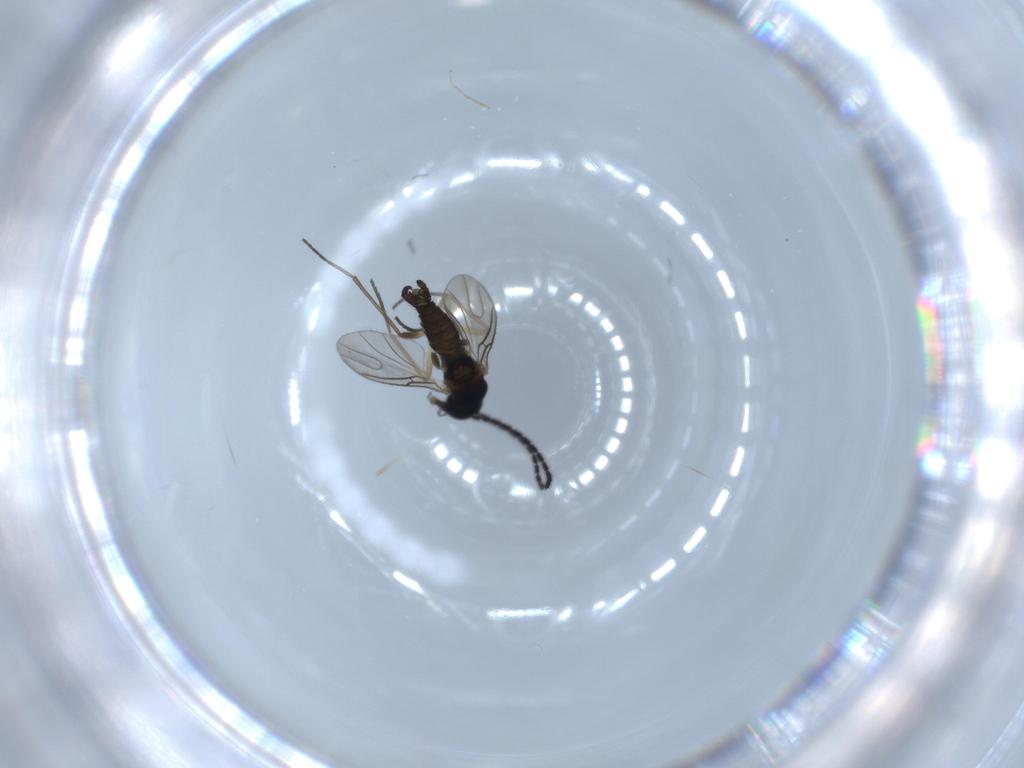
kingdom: Animalia
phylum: Arthropoda
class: Insecta
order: Diptera
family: Sciaridae
